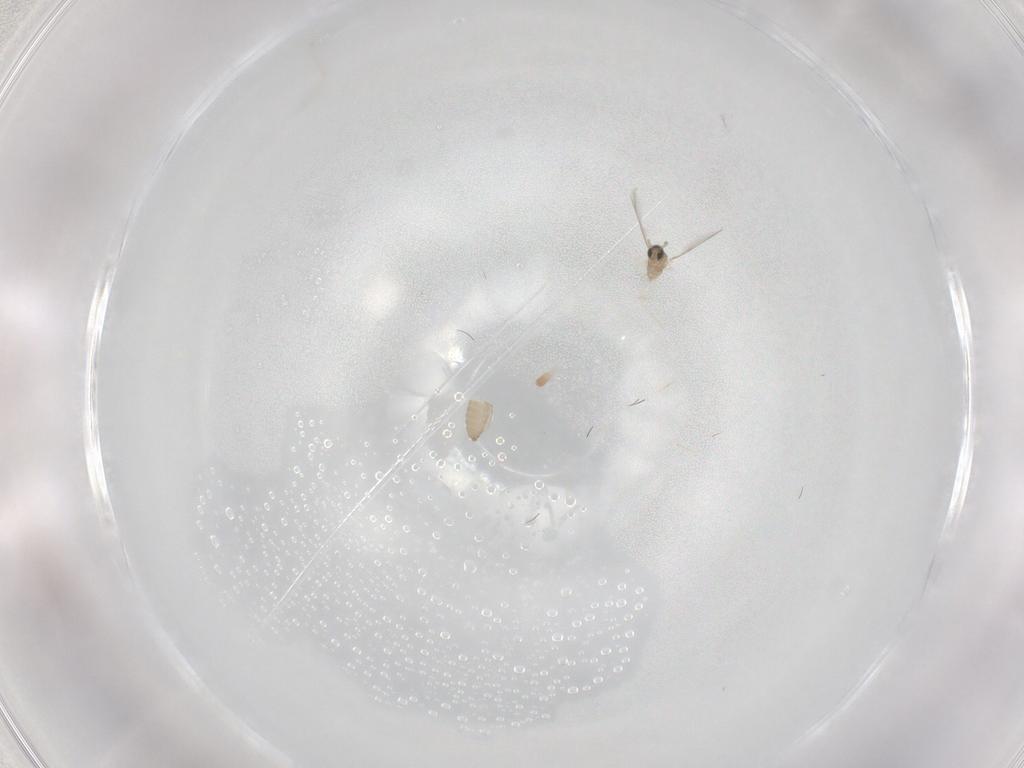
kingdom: Animalia
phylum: Arthropoda
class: Insecta
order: Diptera
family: Cecidomyiidae
